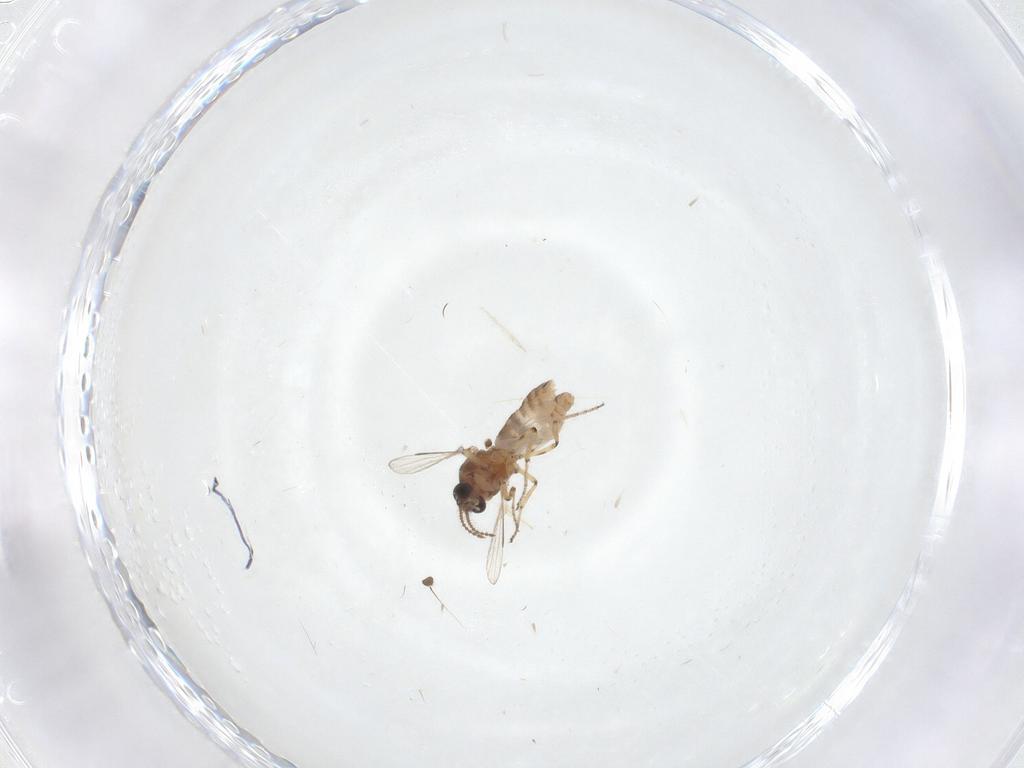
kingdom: Animalia
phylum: Arthropoda
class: Insecta
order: Diptera
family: Ceratopogonidae
